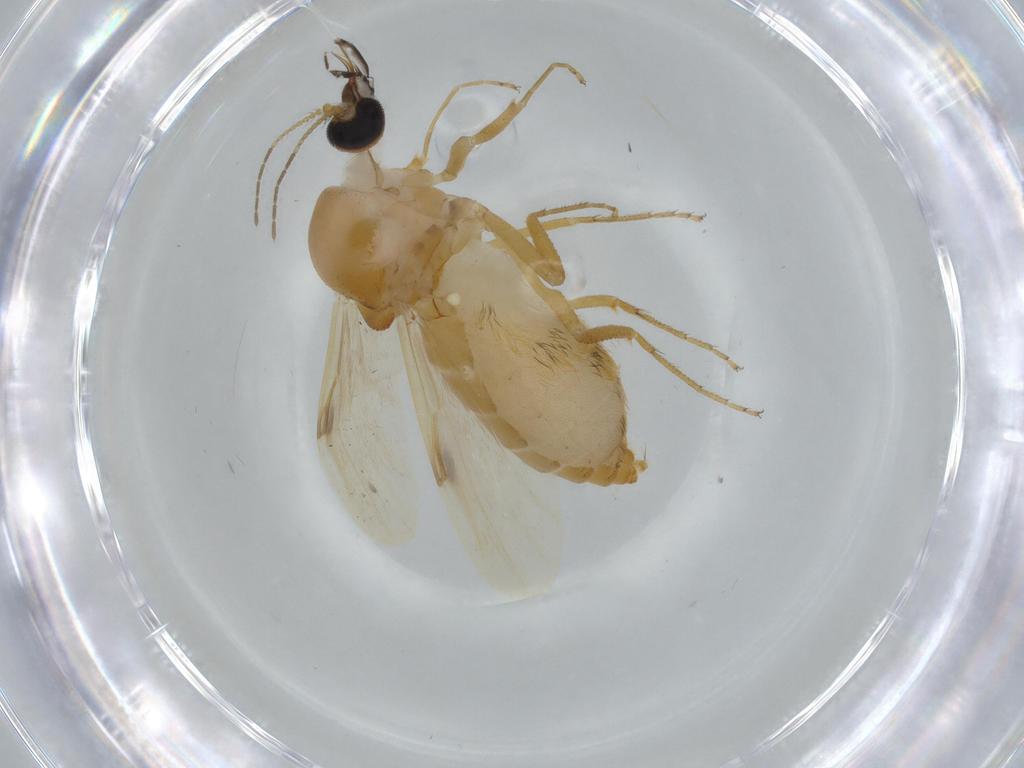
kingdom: Animalia
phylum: Arthropoda
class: Insecta
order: Diptera
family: Ceratopogonidae
